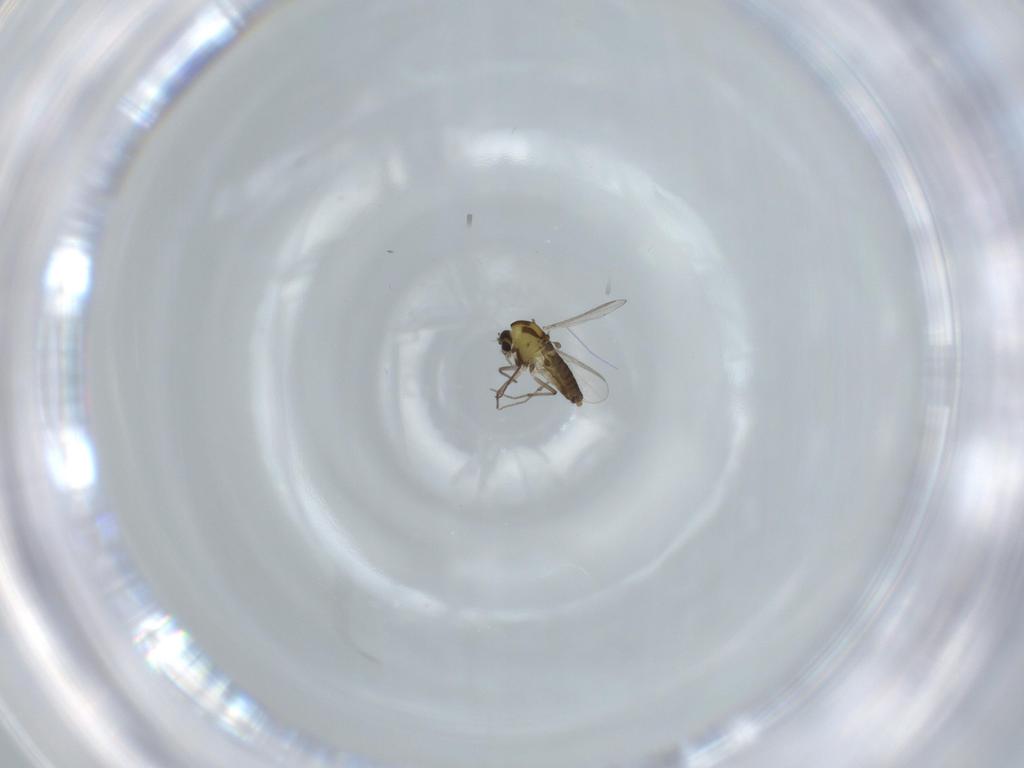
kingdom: Animalia
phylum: Arthropoda
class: Insecta
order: Diptera
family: Chironomidae
